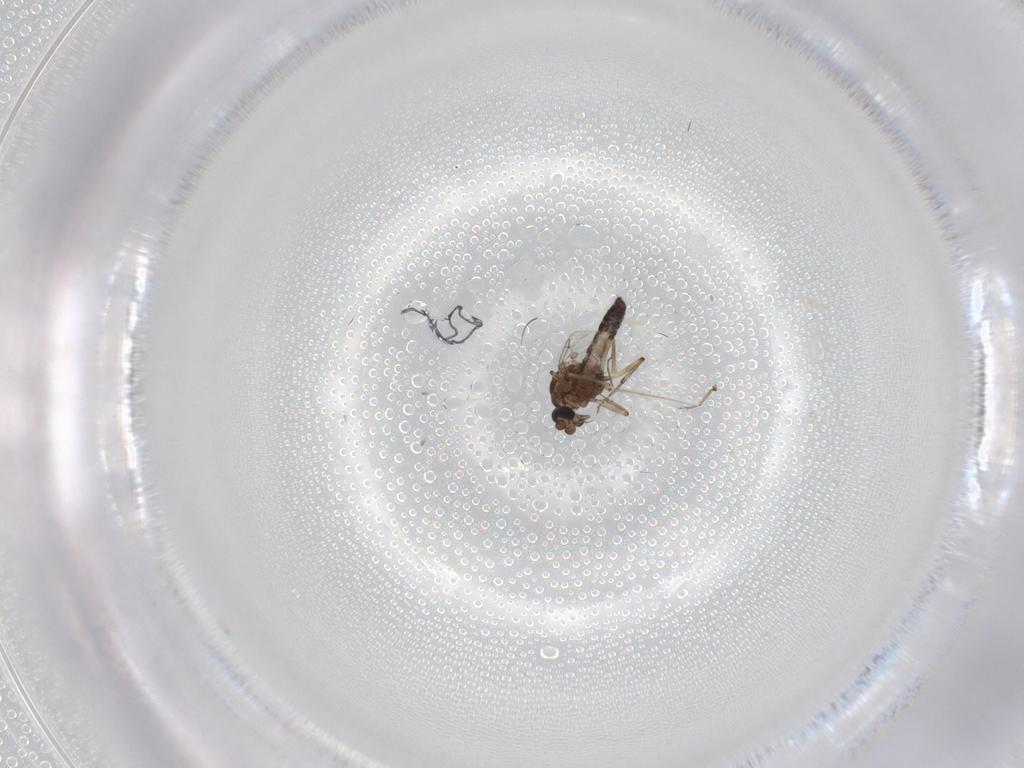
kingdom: Animalia
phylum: Arthropoda
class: Insecta
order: Diptera
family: Ceratopogonidae
